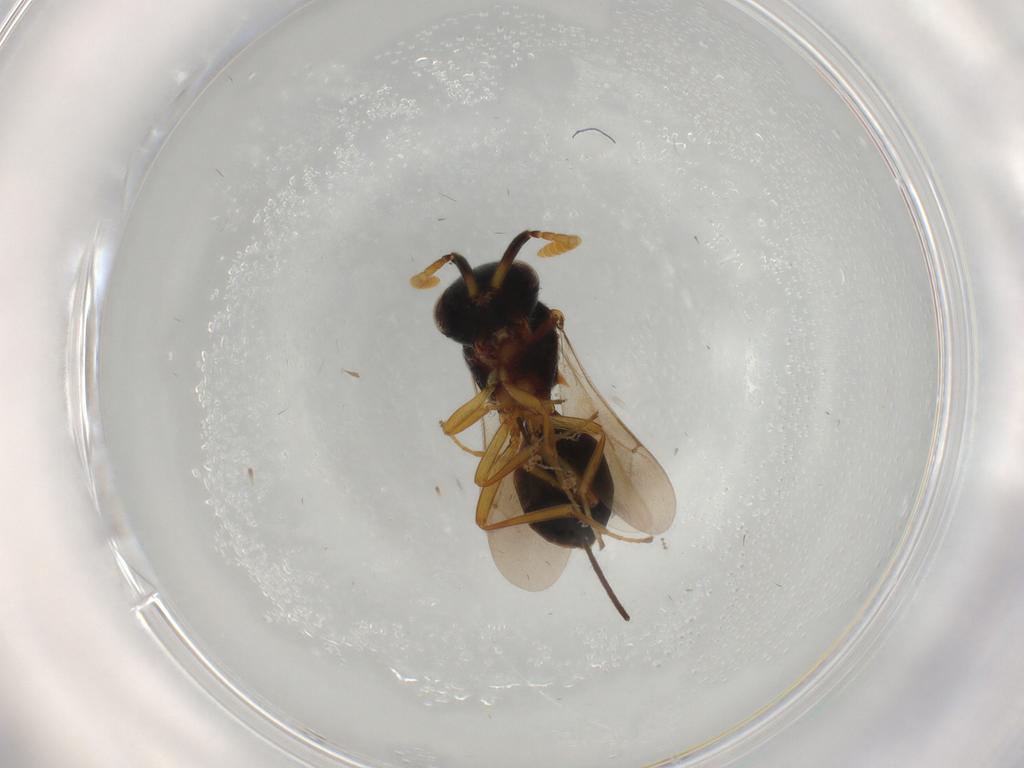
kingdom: Animalia
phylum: Arthropoda
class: Insecta
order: Hymenoptera
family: Scelionidae
